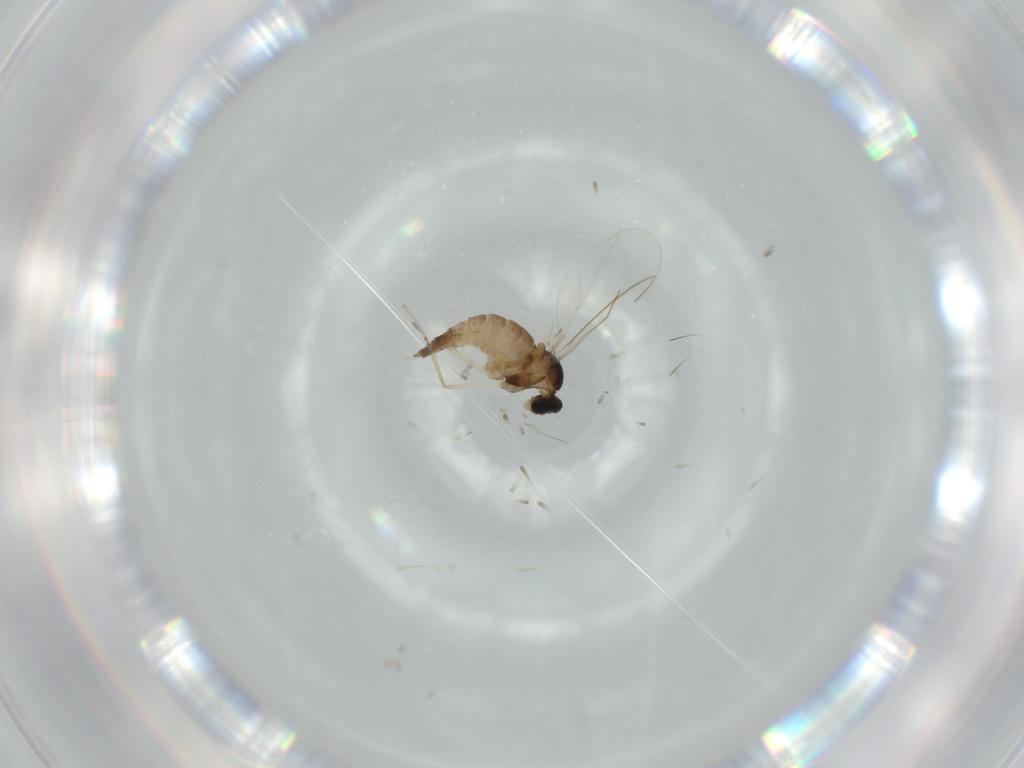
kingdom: Animalia
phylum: Arthropoda
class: Insecta
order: Diptera
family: Cecidomyiidae
